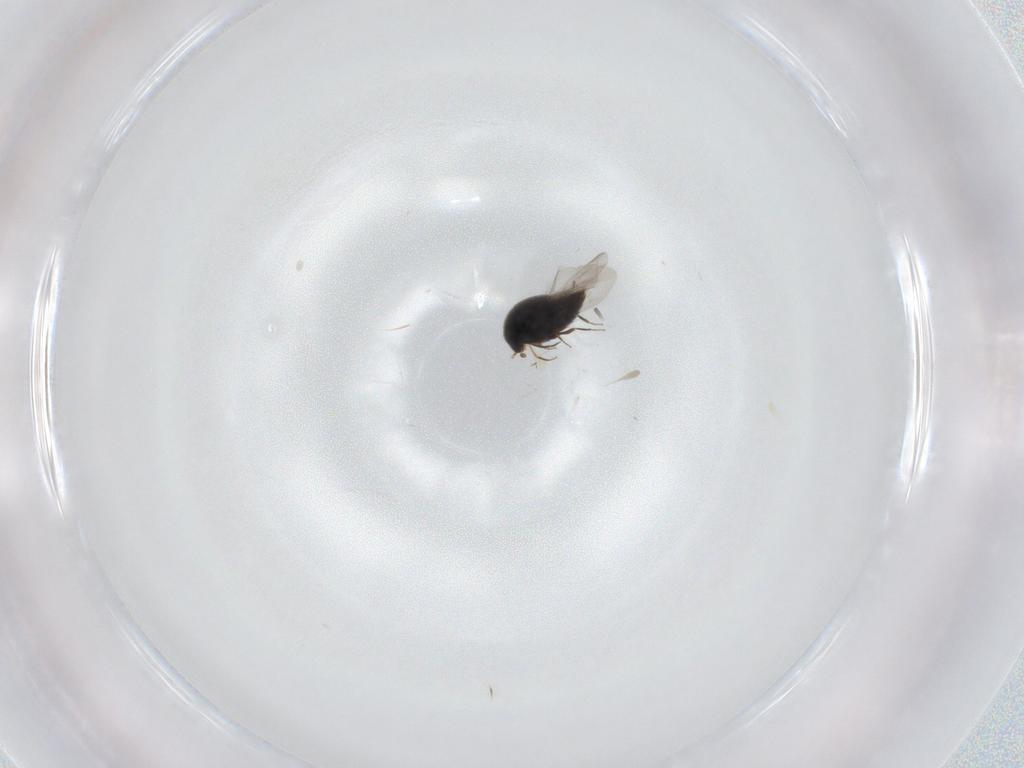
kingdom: Animalia
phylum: Arthropoda
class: Insecta
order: Coleoptera
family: Staphylinidae
